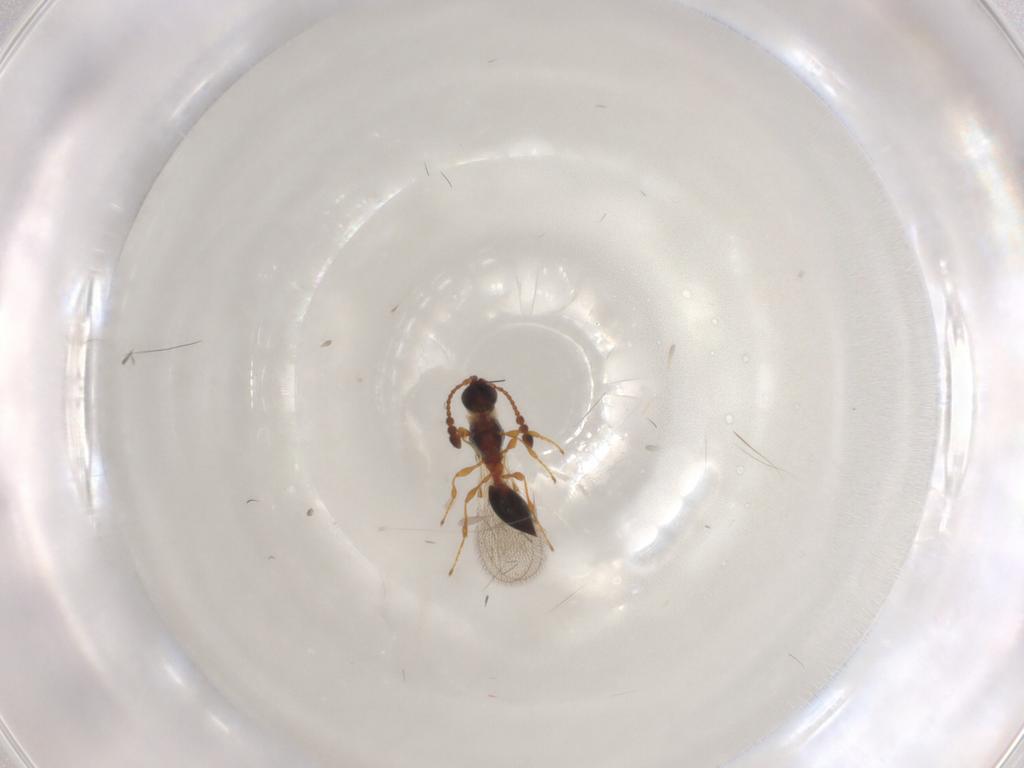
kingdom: Animalia
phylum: Arthropoda
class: Insecta
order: Hymenoptera
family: Diapriidae
